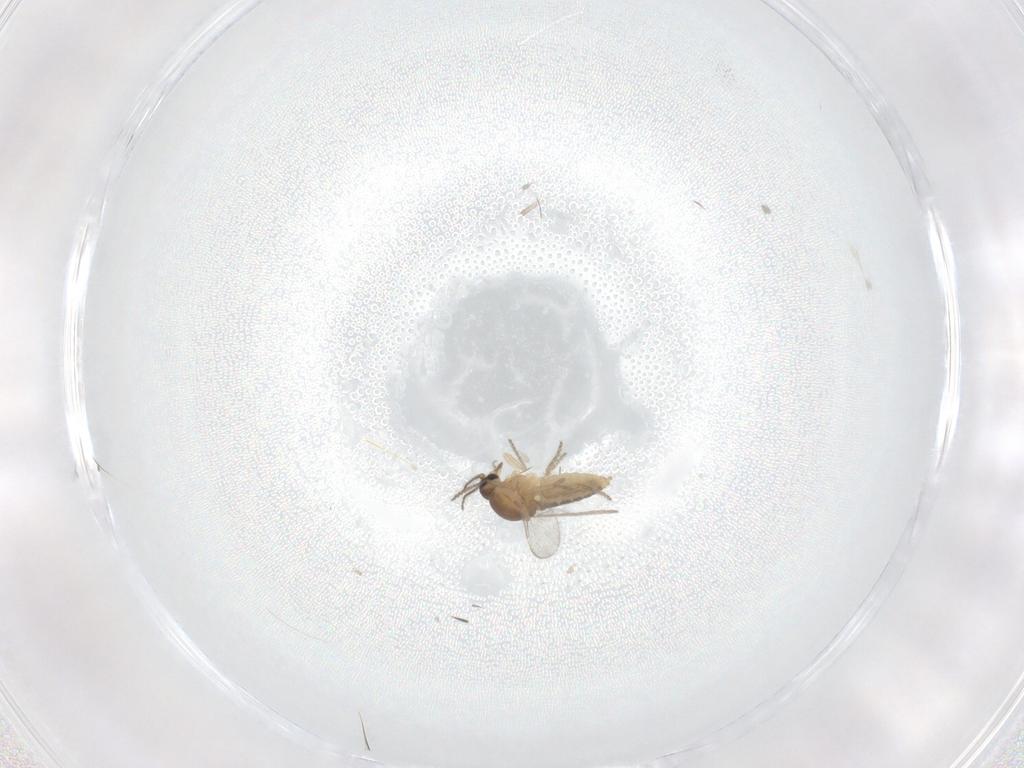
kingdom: Animalia
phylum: Arthropoda
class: Insecta
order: Diptera
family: Ceratopogonidae
